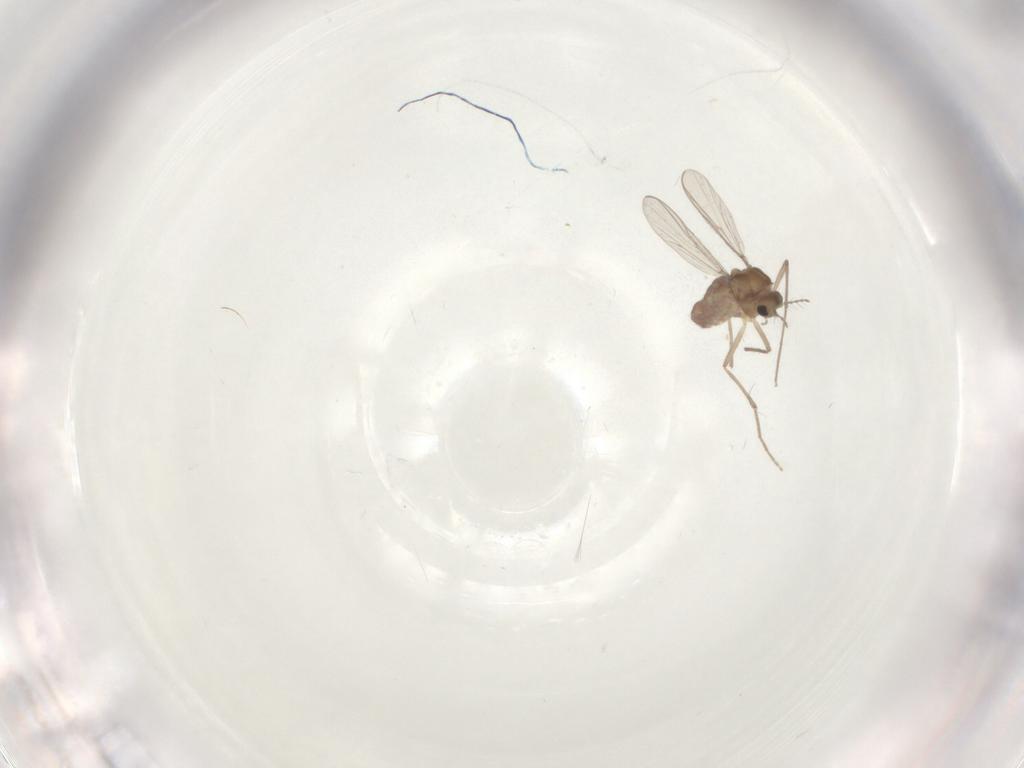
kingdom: Animalia
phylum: Arthropoda
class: Insecta
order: Diptera
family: Chironomidae
